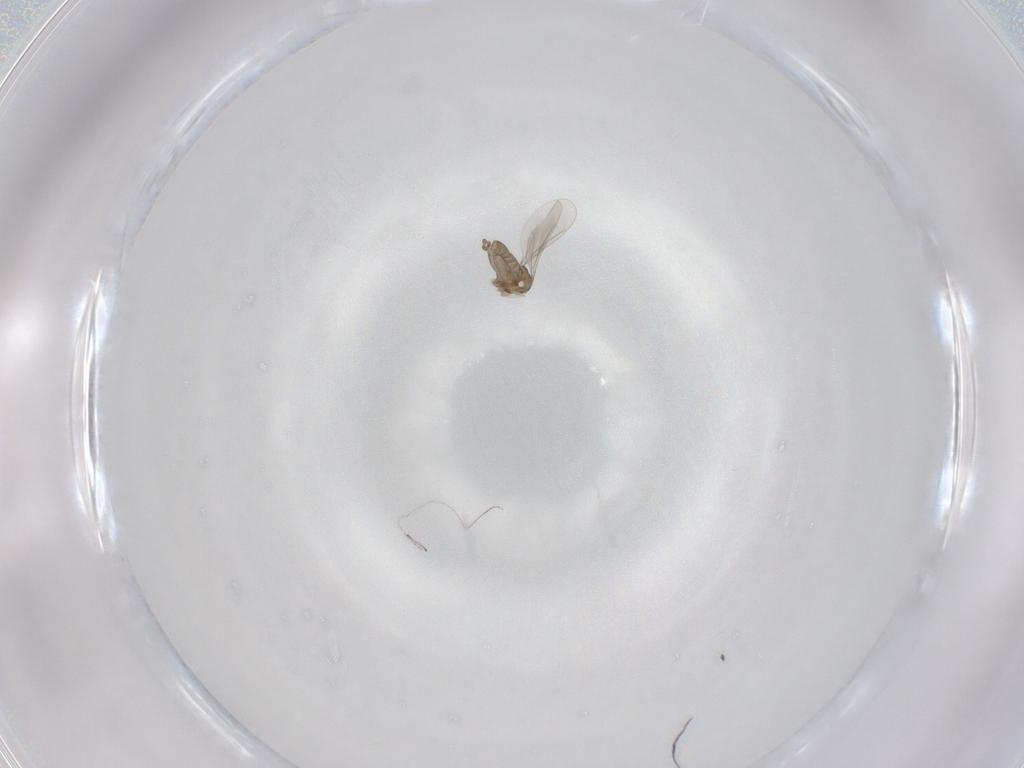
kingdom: Animalia
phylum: Arthropoda
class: Insecta
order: Diptera
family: Cecidomyiidae
